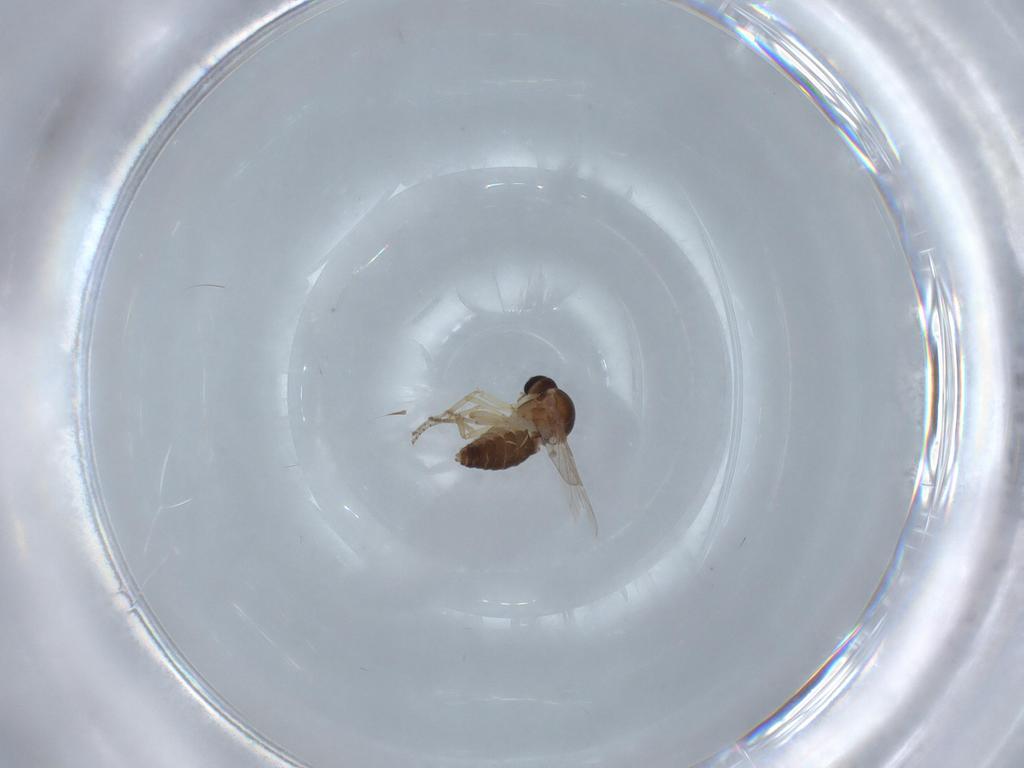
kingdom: Animalia
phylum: Arthropoda
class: Insecta
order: Diptera
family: Ceratopogonidae
